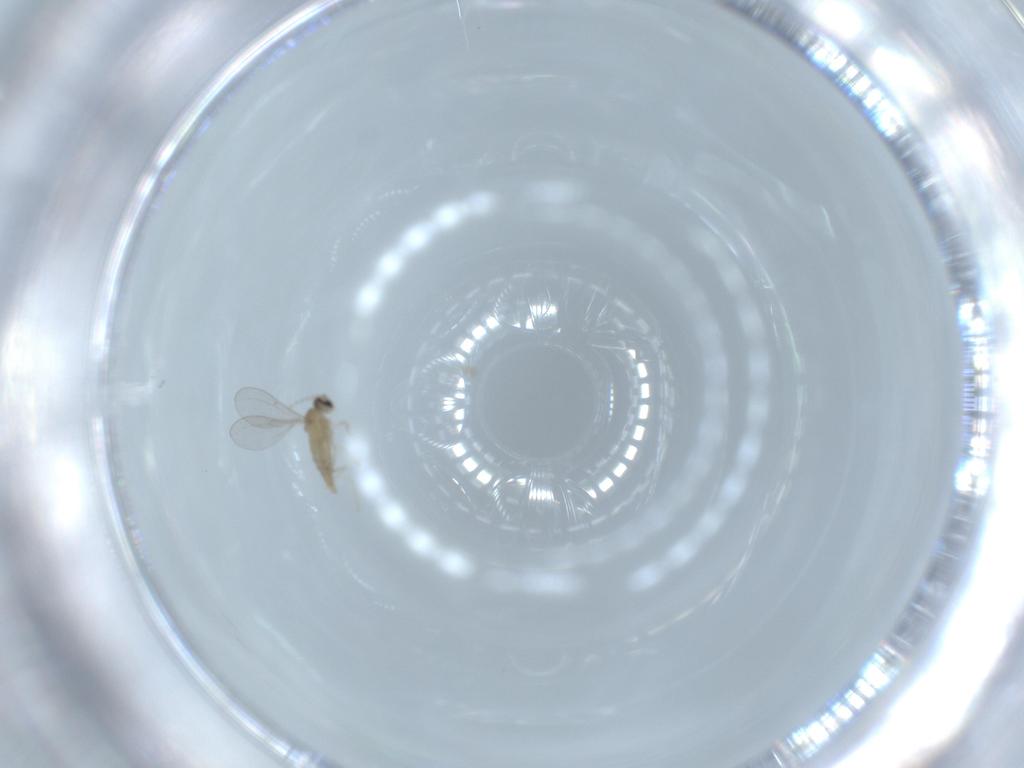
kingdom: Animalia
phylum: Arthropoda
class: Insecta
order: Diptera
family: Cecidomyiidae
